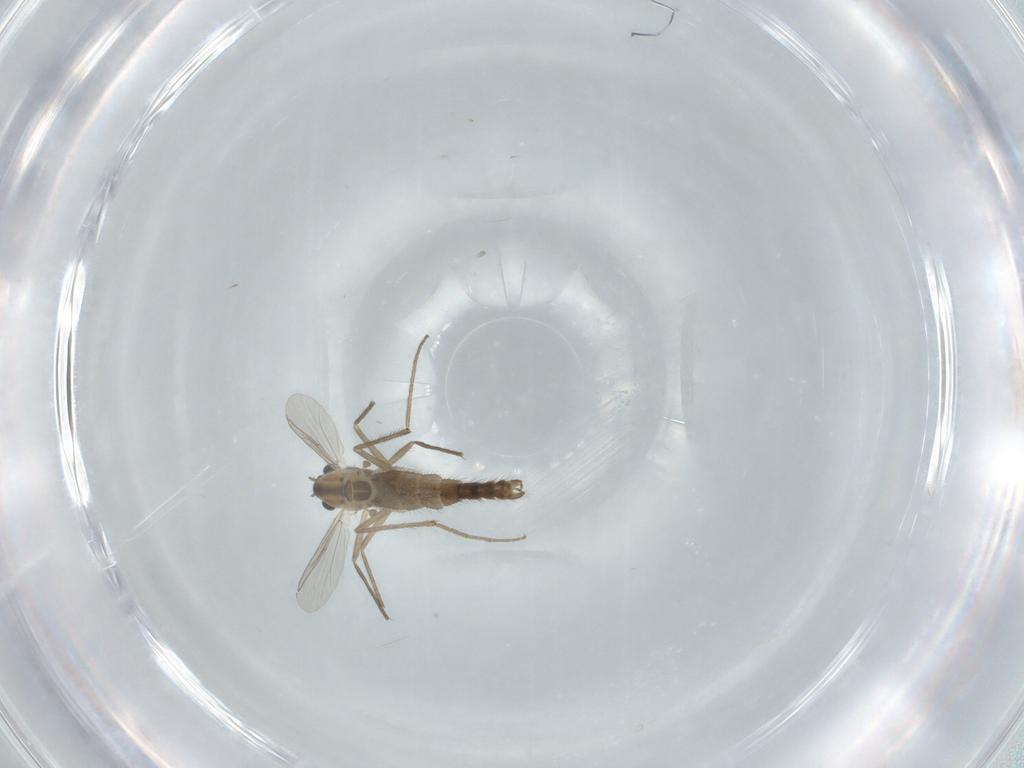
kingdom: Animalia
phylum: Arthropoda
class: Insecta
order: Diptera
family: Chironomidae
